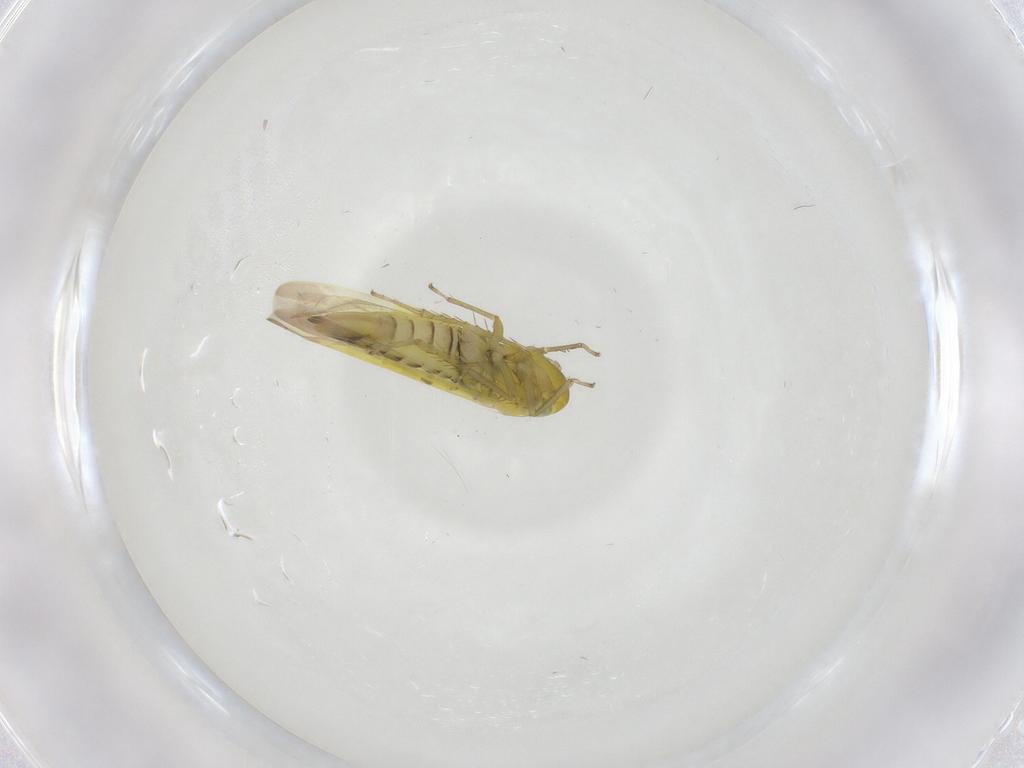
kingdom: Animalia
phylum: Arthropoda
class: Insecta
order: Hemiptera
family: Cicadellidae
